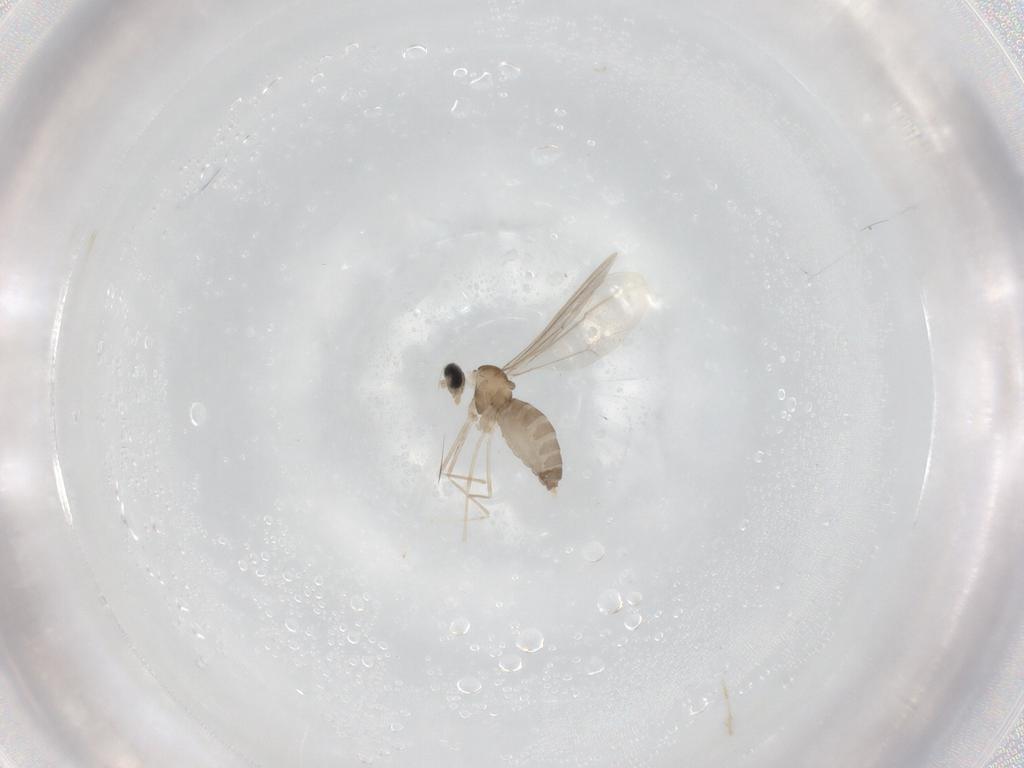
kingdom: Animalia
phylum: Arthropoda
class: Insecta
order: Diptera
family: Cecidomyiidae
